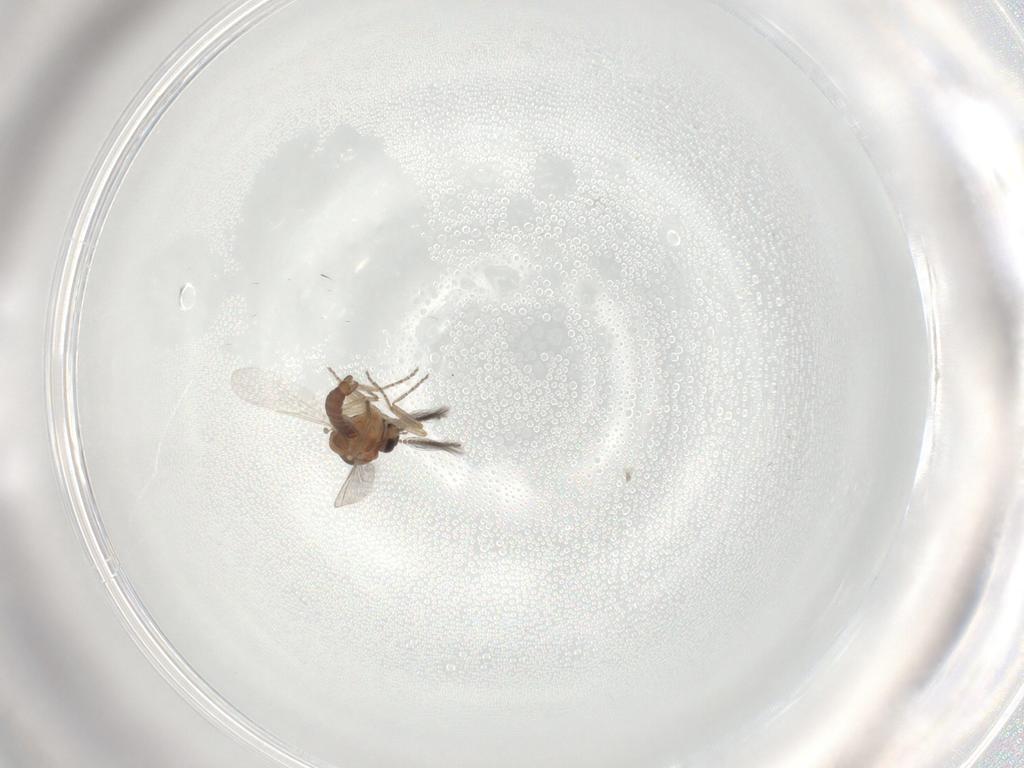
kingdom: Animalia
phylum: Arthropoda
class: Insecta
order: Diptera
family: Ceratopogonidae
